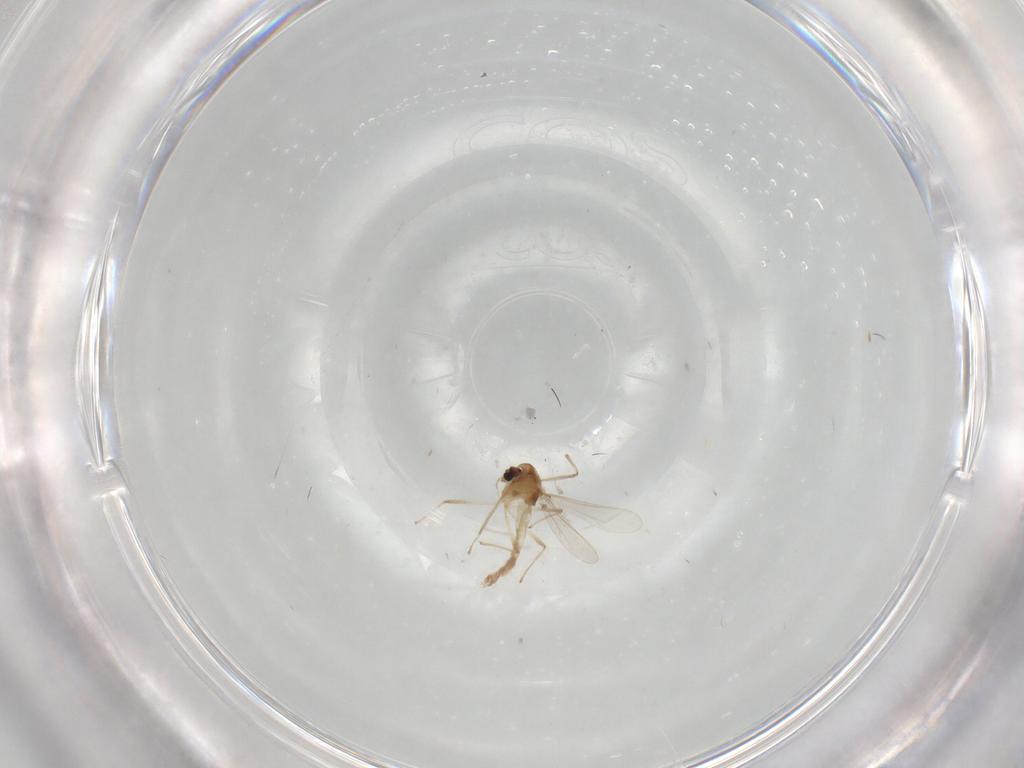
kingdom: Animalia
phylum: Arthropoda
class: Insecta
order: Diptera
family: Chironomidae
